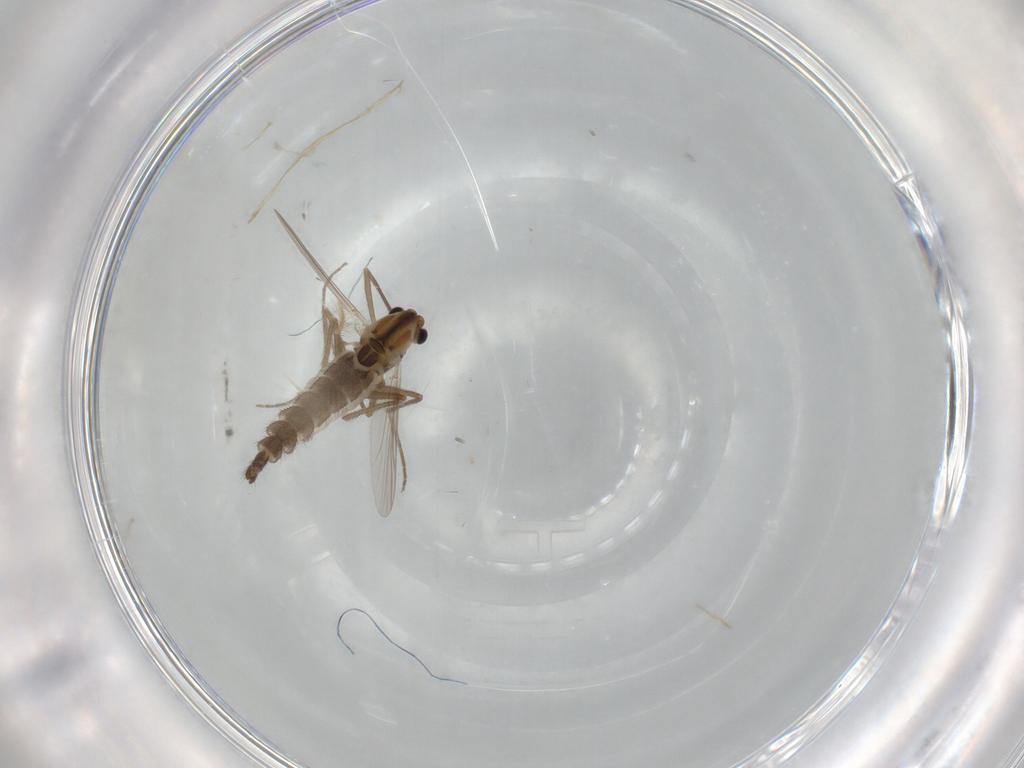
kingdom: Animalia
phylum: Arthropoda
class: Insecta
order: Diptera
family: Chironomidae
